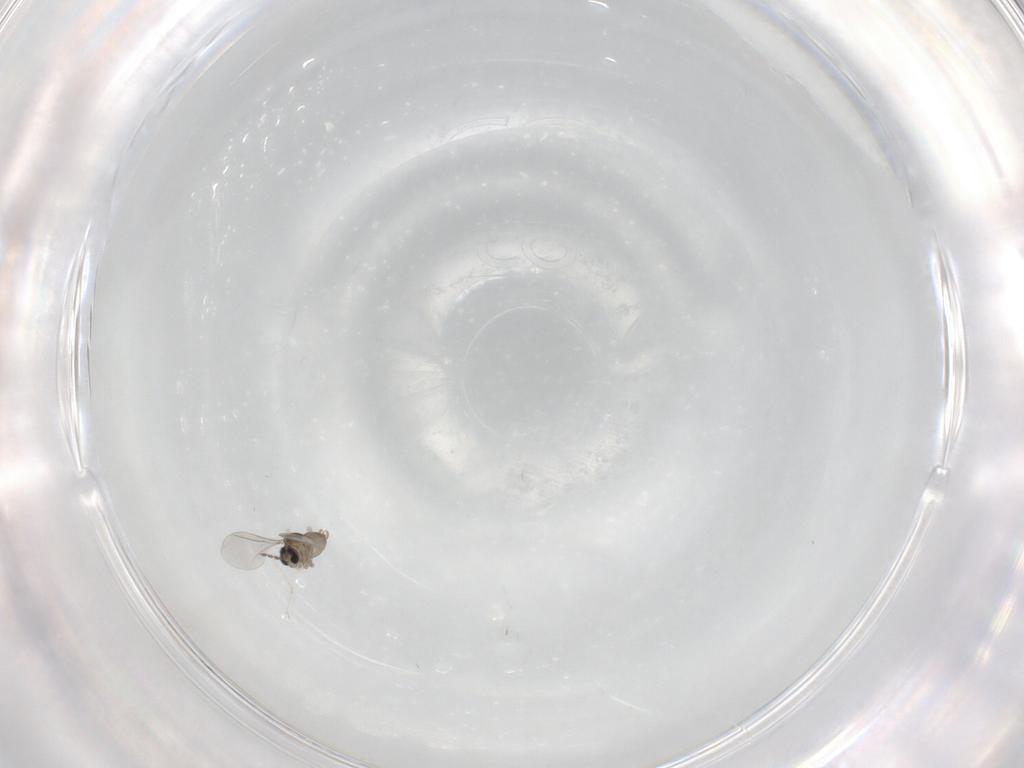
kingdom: Animalia
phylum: Arthropoda
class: Insecta
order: Diptera
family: Cecidomyiidae
